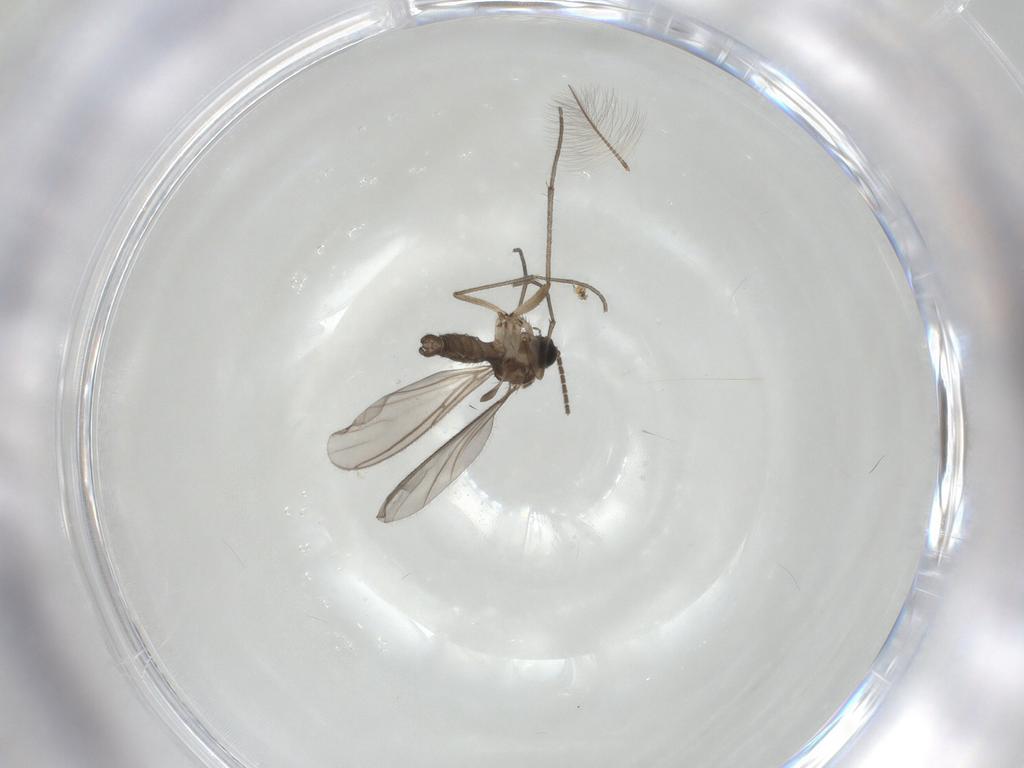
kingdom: Animalia
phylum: Arthropoda
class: Insecta
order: Diptera
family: Sciaridae
